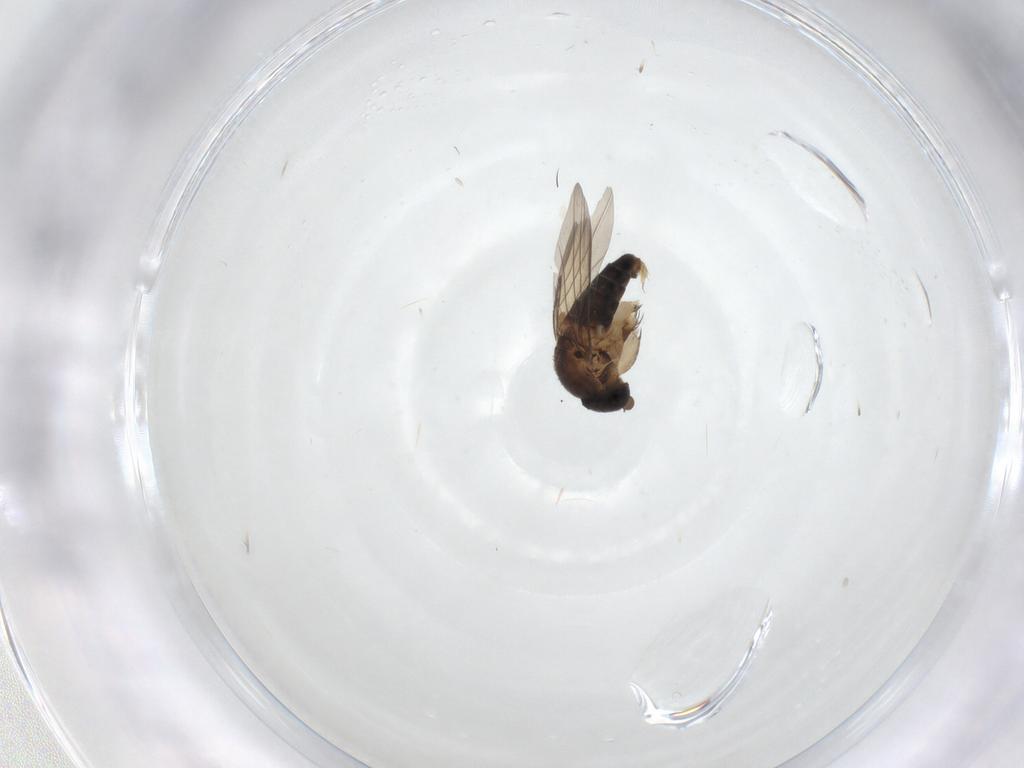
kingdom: Animalia
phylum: Arthropoda
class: Insecta
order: Diptera
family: Phoridae
